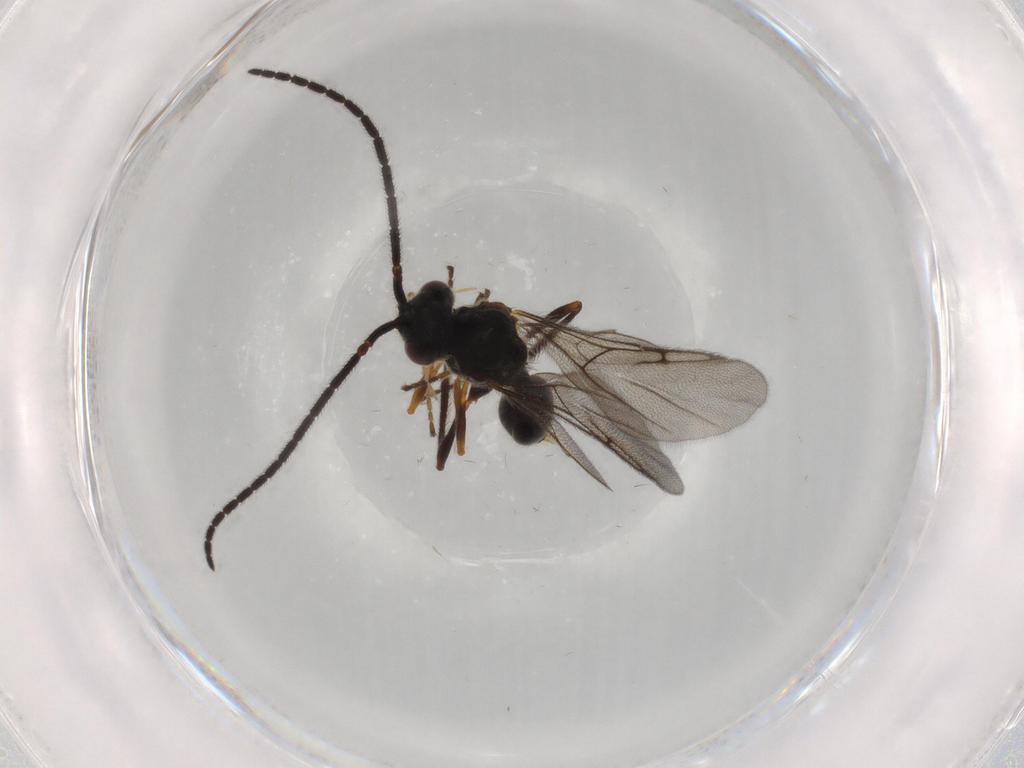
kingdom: Animalia
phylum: Arthropoda
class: Insecta
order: Hymenoptera
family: Diapriidae
